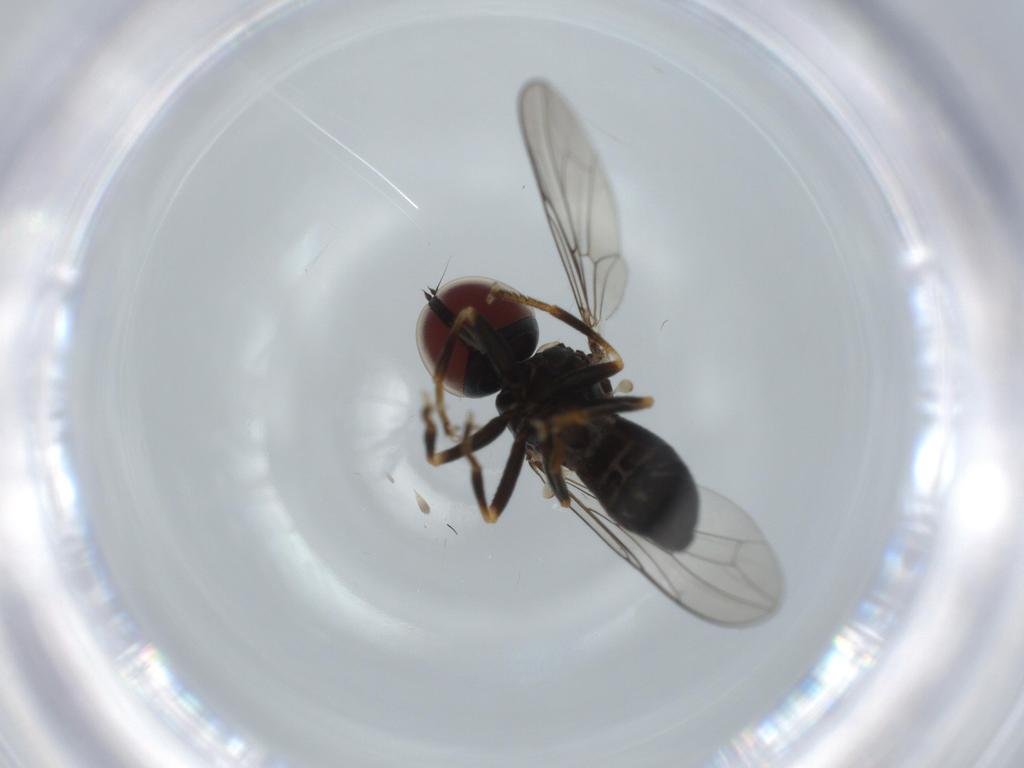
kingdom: Animalia
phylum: Arthropoda
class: Insecta
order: Diptera
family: Pipunculidae
